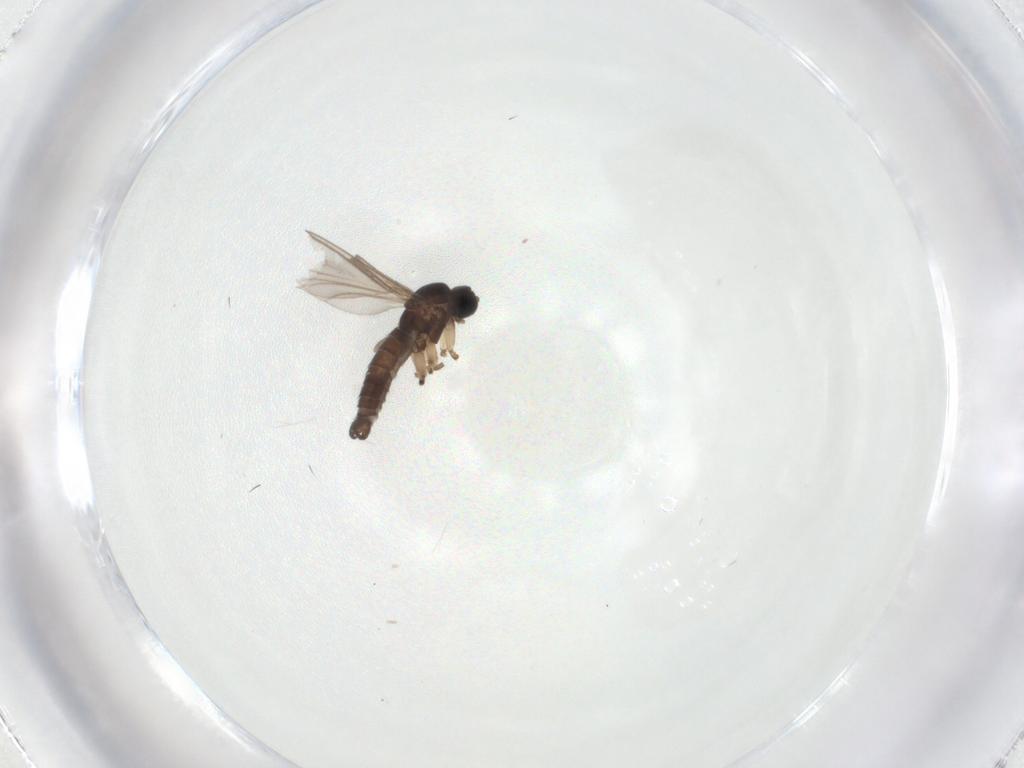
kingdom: Animalia
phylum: Arthropoda
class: Insecta
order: Diptera
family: Sciaridae
